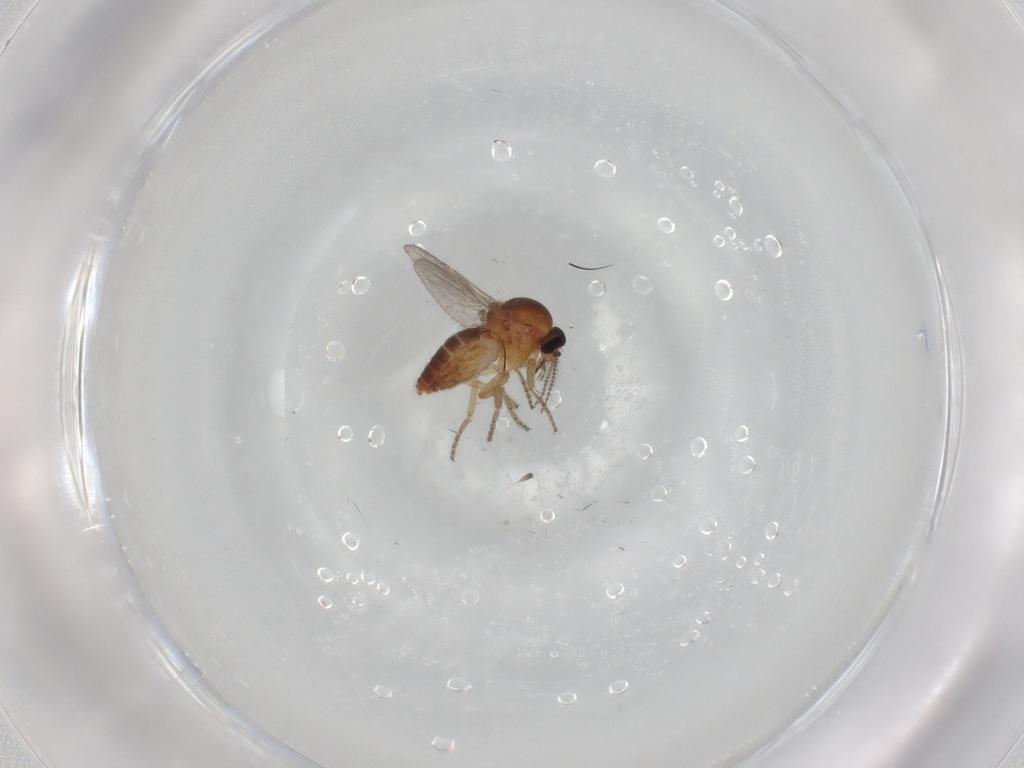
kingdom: Animalia
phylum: Arthropoda
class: Insecta
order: Diptera
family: Ceratopogonidae
